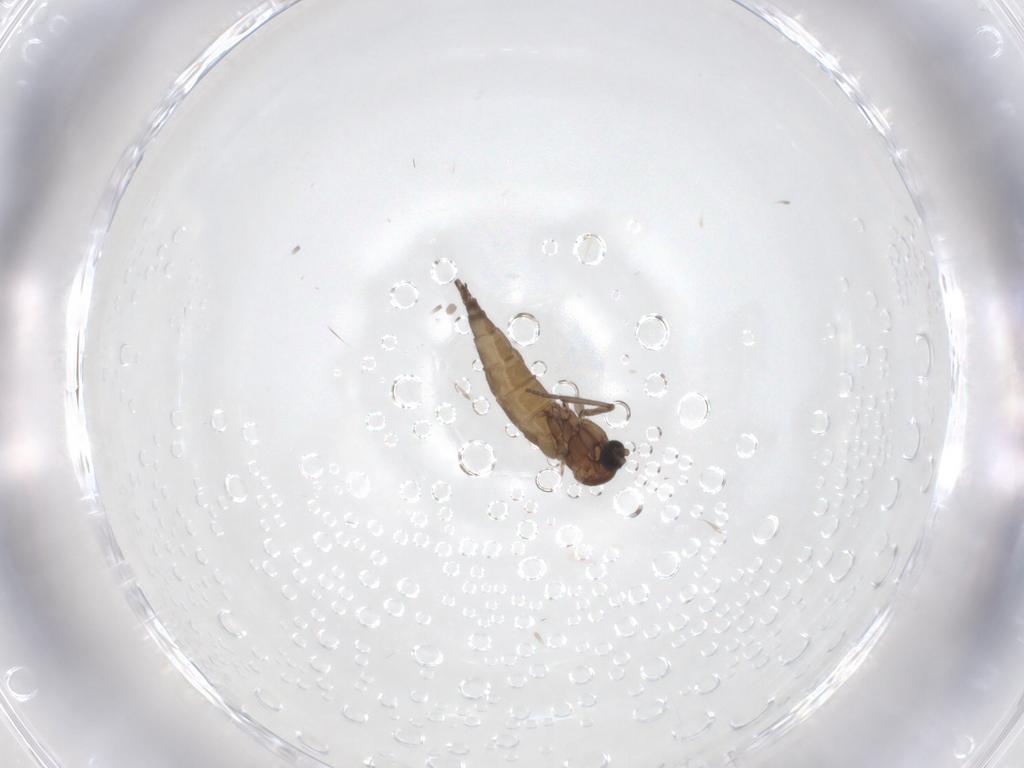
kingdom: Animalia
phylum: Arthropoda
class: Insecta
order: Diptera
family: Sciaridae
